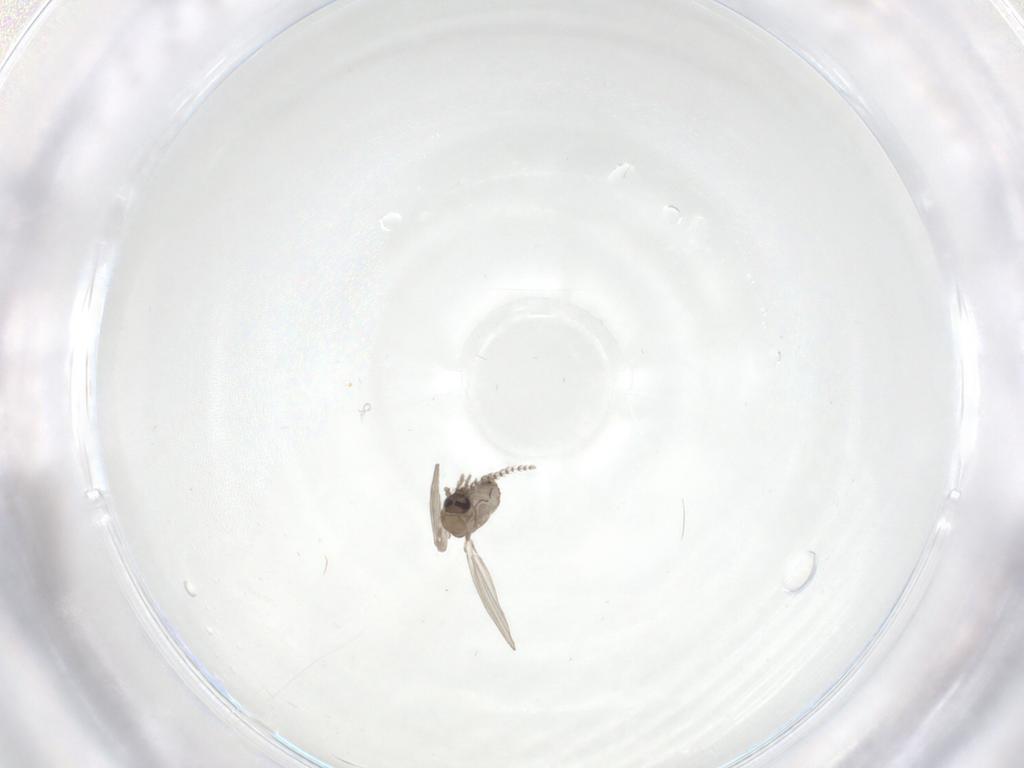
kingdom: Animalia
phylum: Arthropoda
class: Insecta
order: Diptera
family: Psychodidae
